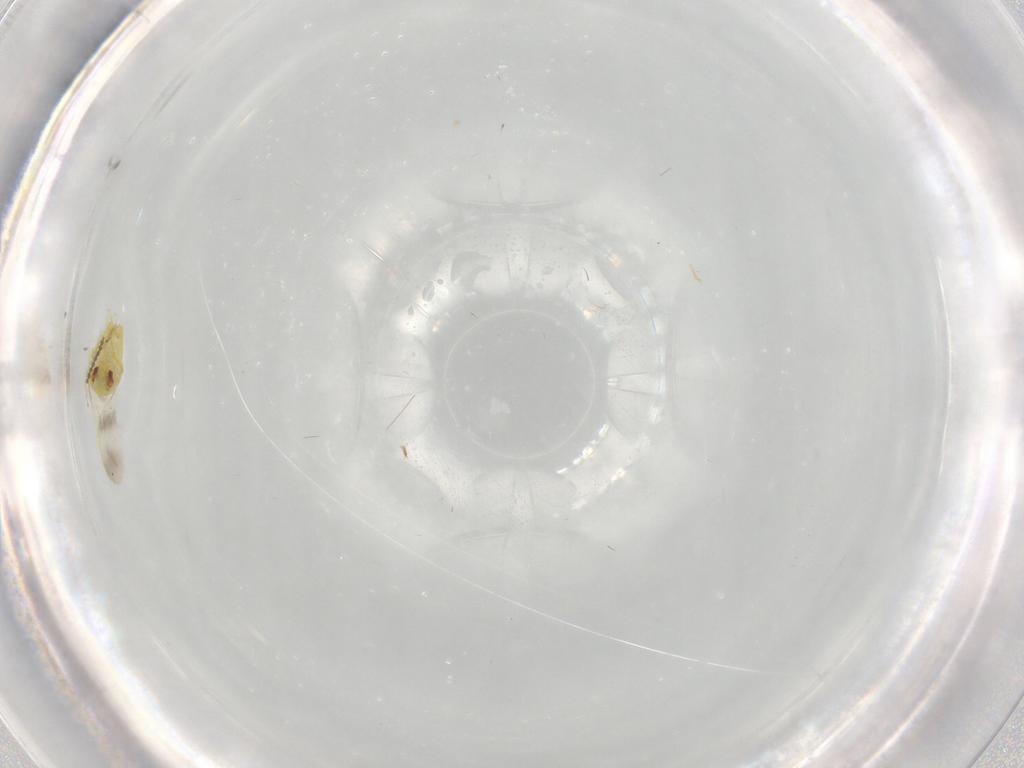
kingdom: Animalia
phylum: Arthropoda
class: Insecta
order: Hemiptera
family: Aleyrodidae
